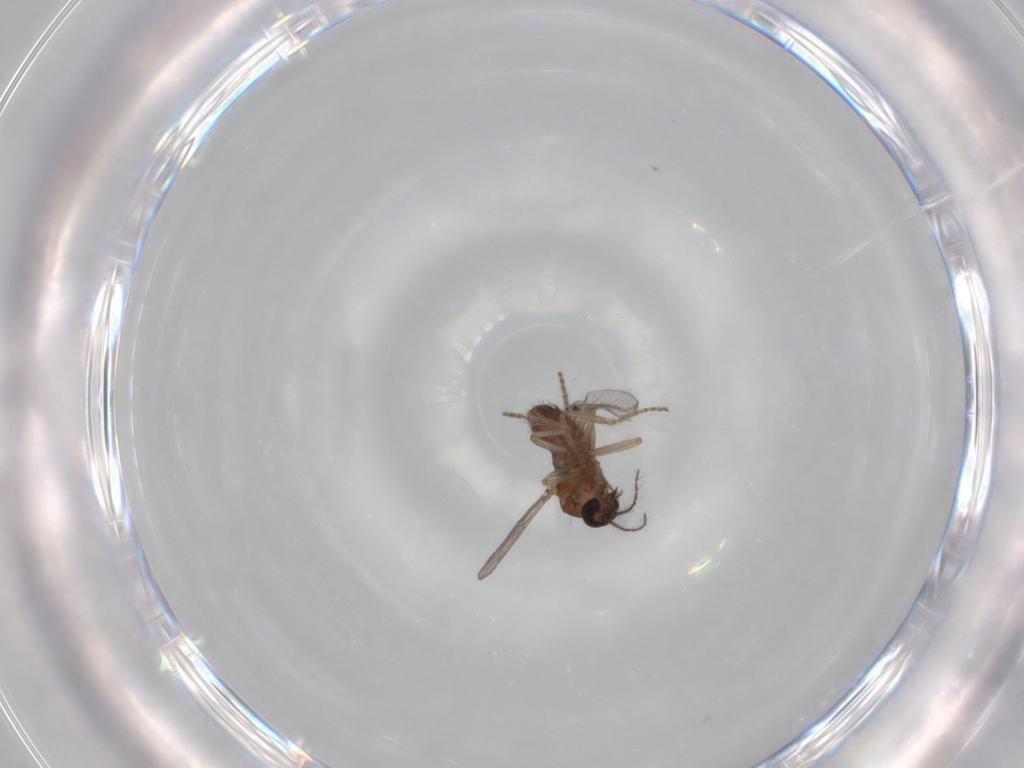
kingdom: Animalia
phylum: Arthropoda
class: Insecta
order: Diptera
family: Ceratopogonidae
